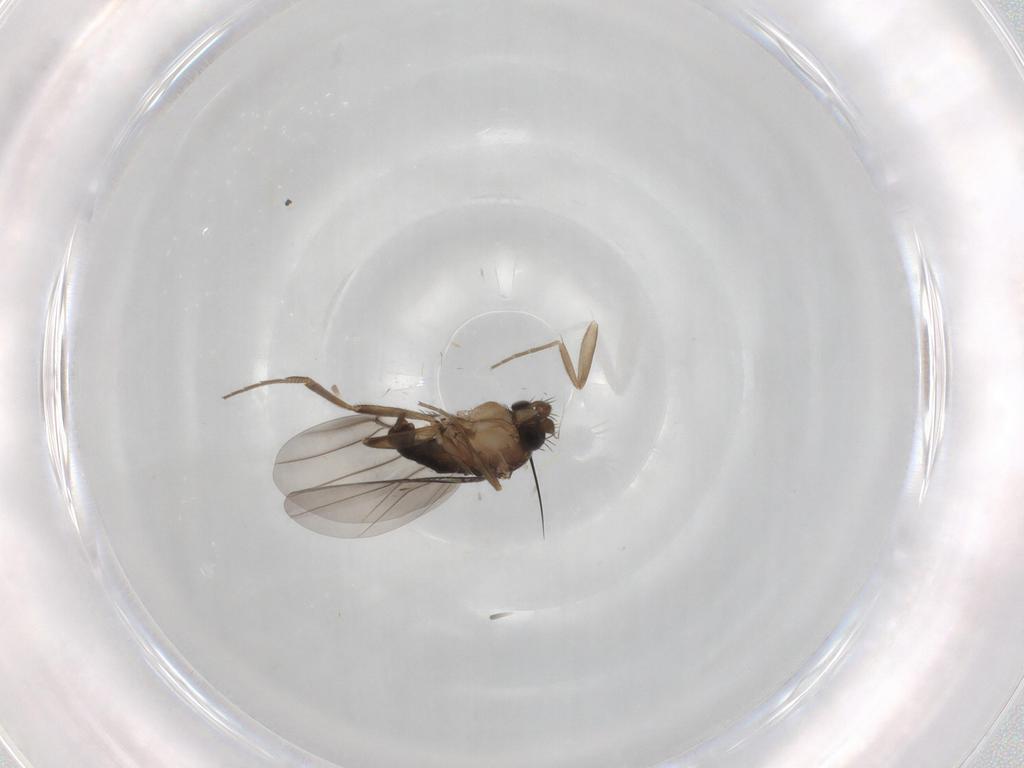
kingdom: Animalia
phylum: Arthropoda
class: Insecta
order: Diptera
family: Phoridae
